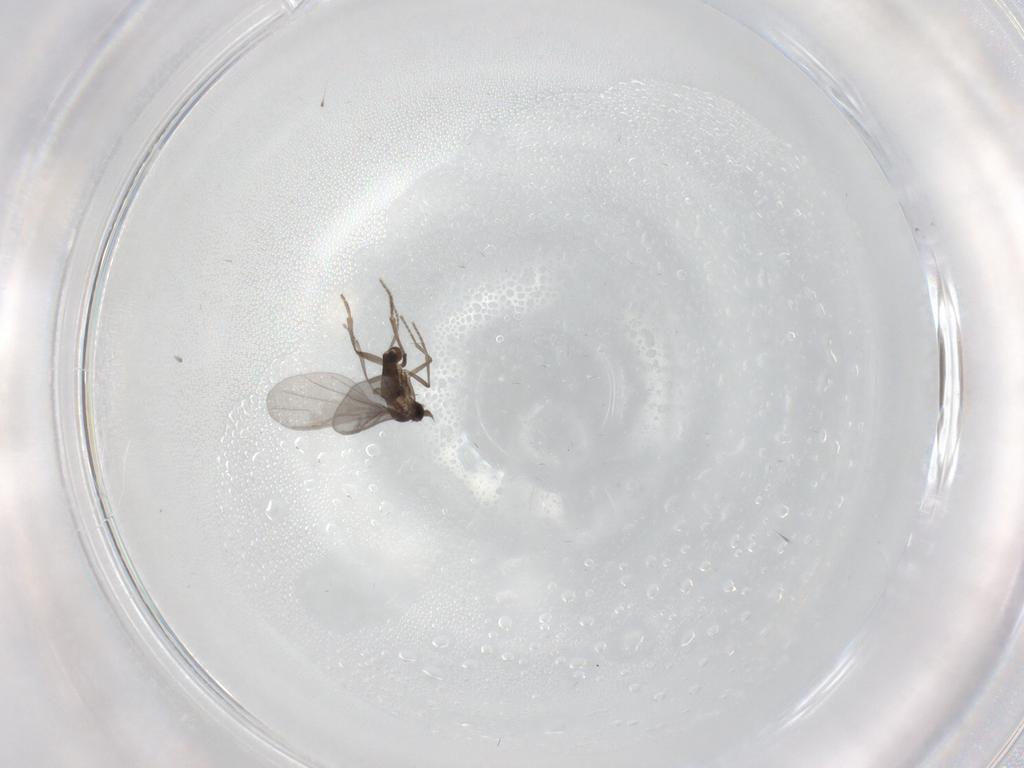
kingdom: Animalia
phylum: Arthropoda
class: Insecta
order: Diptera
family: Phoridae
